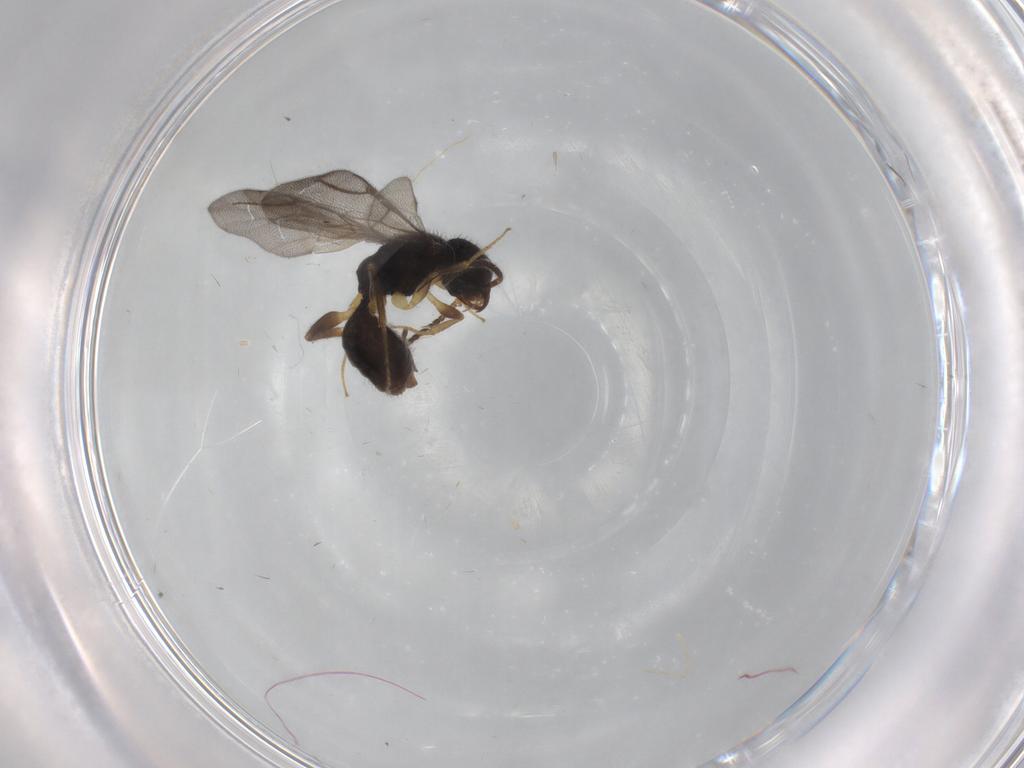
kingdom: Animalia
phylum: Arthropoda
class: Insecta
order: Hymenoptera
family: Bethylidae
